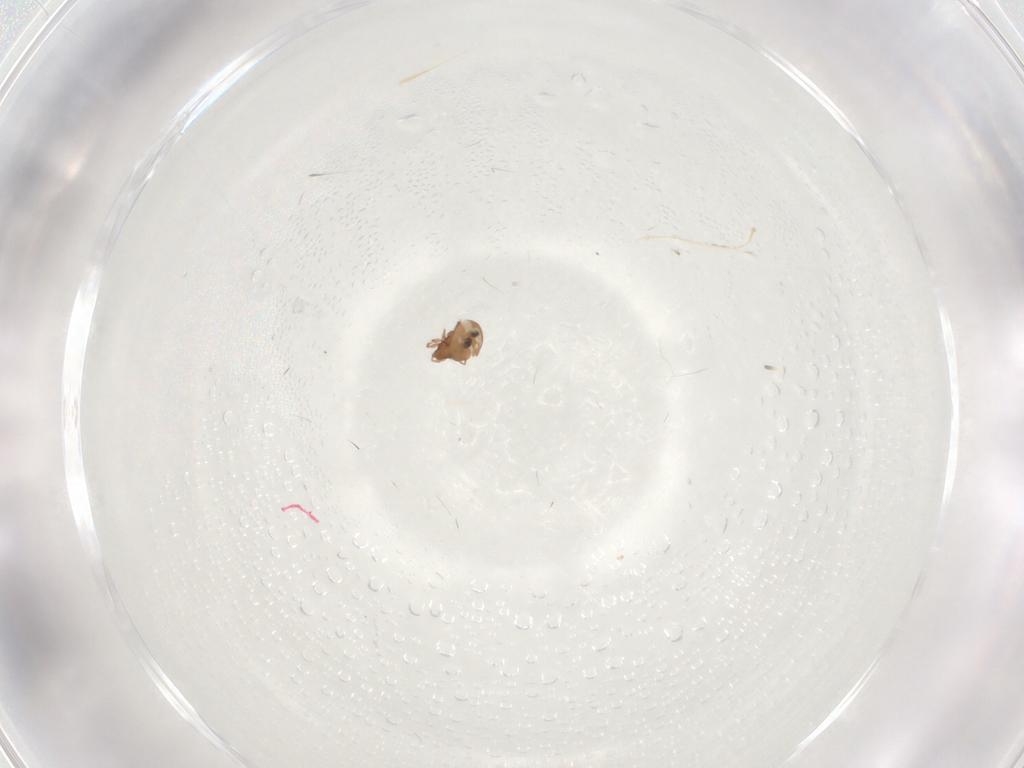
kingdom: Animalia
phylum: Arthropoda
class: Arachnida
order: Sarcoptiformes
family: Scheloribatidae
